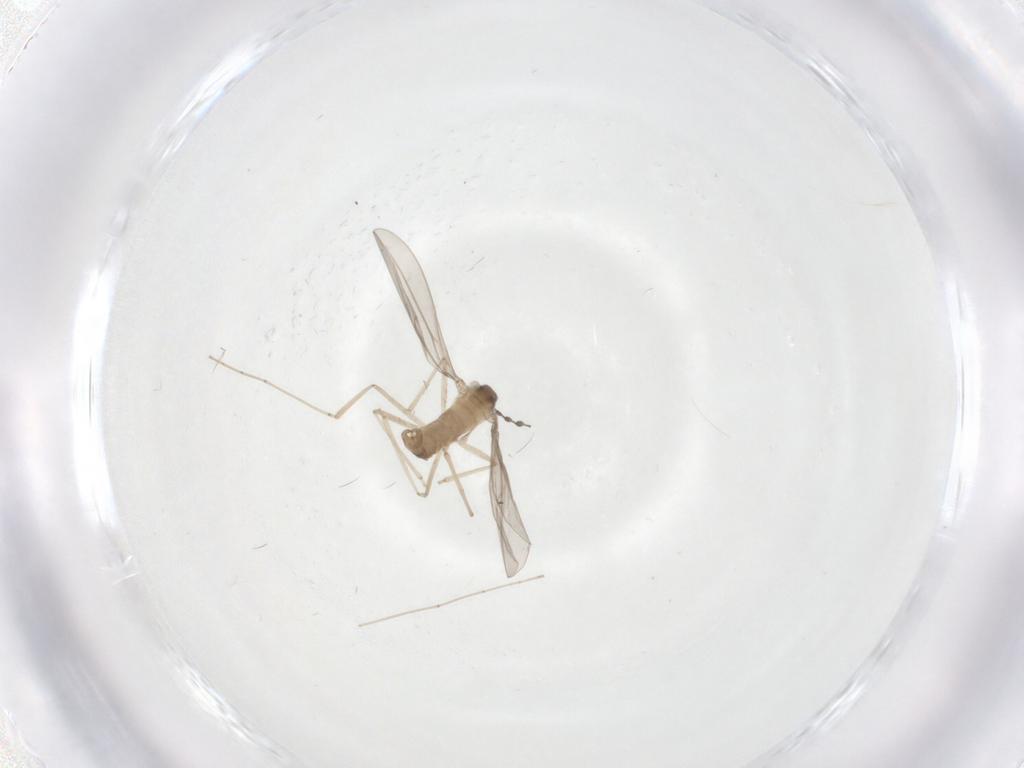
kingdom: Animalia
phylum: Arthropoda
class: Insecta
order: Diptera
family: Cecidomyiidae
